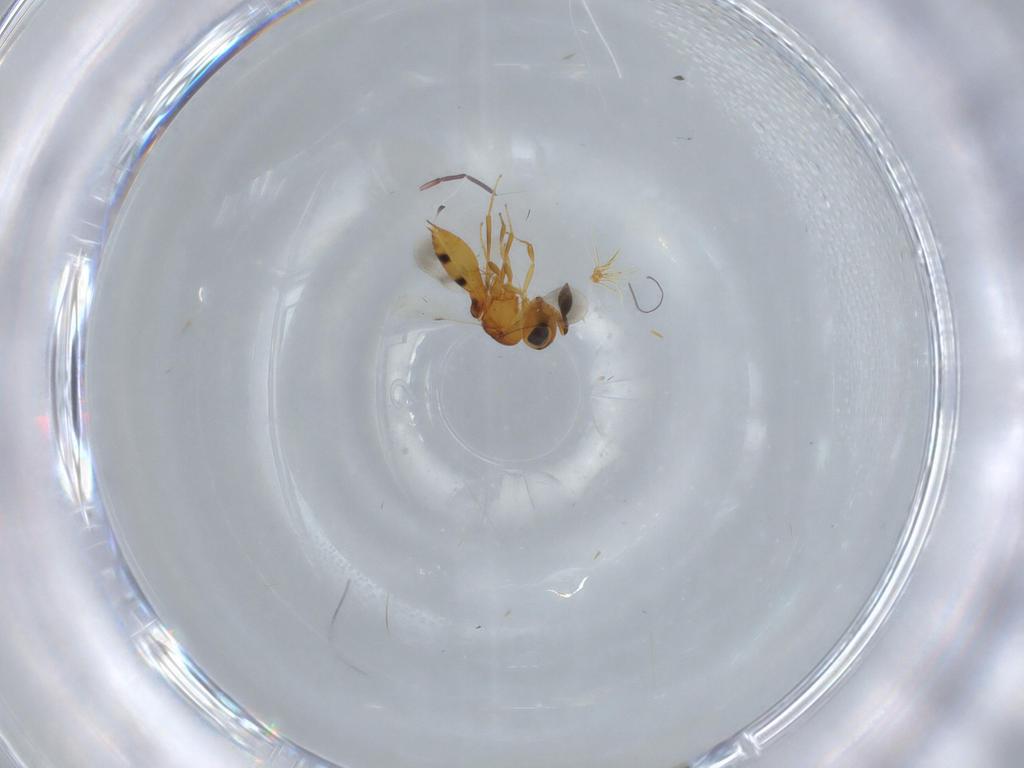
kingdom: Animalia
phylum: Arthropoda
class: Insecta
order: Hymenoptera
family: Scelionidae
